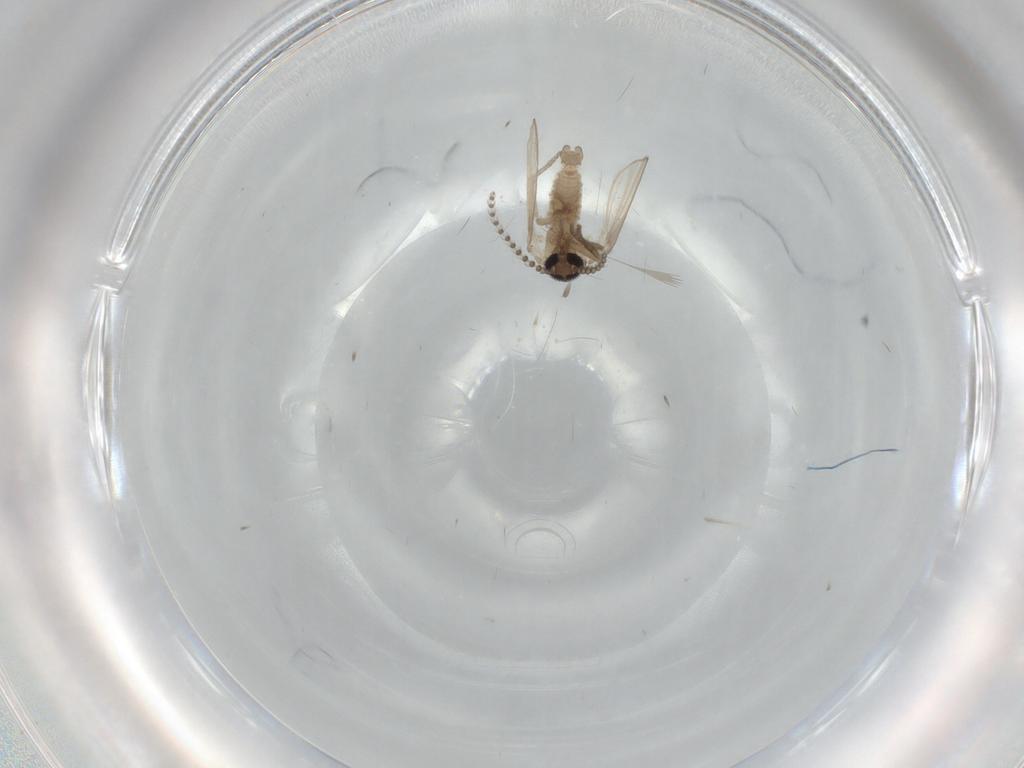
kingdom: Animalia
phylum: Arthropoda
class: Insecta
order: Diptera
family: Psychodidae
